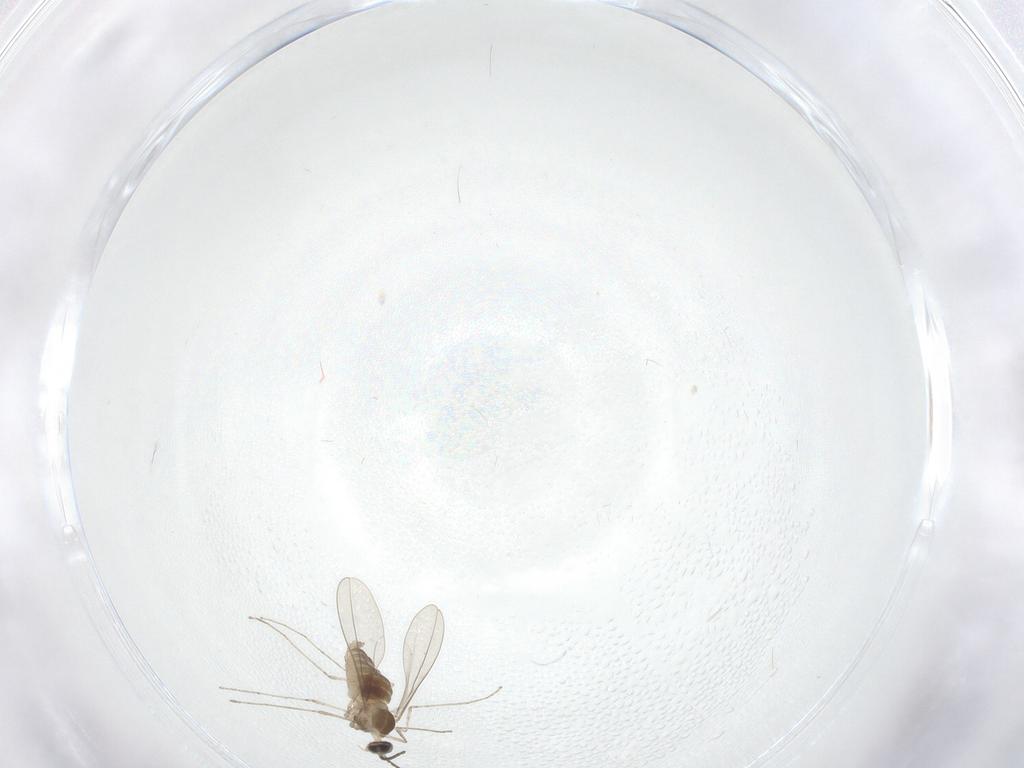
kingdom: Animalia
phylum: Arthropoda
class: Insecta
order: Diptera
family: Cecidomyiidae
